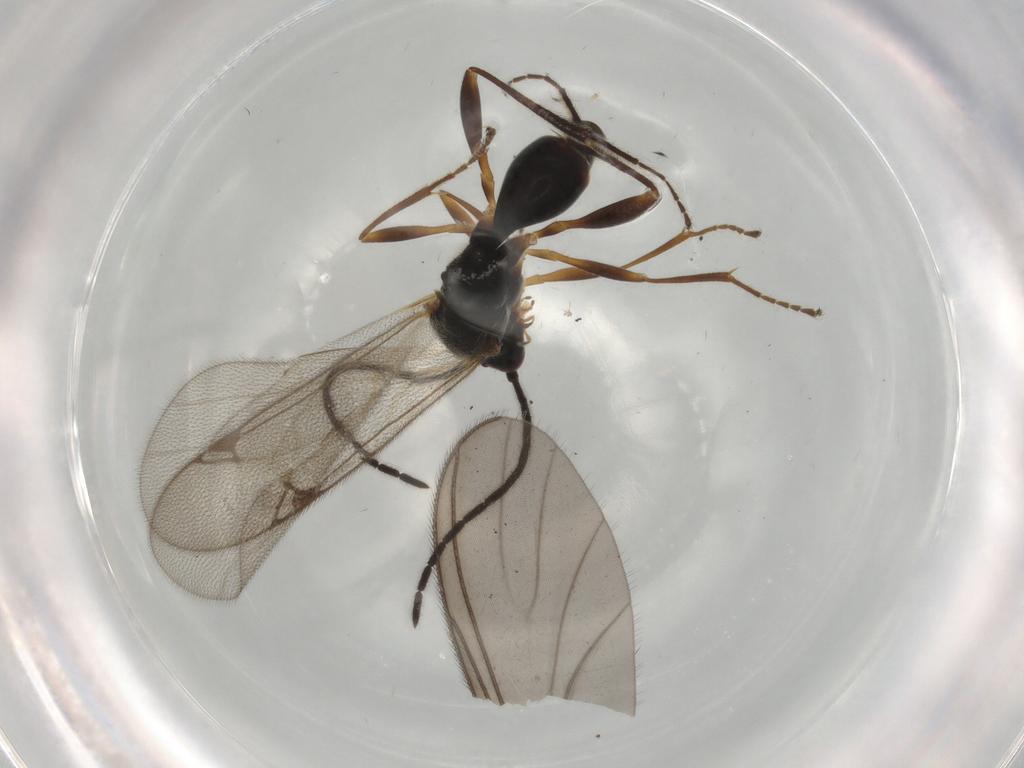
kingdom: Animalia
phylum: Arthropoda
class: Insecta
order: Hymenoptera
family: Proctotrupidae
